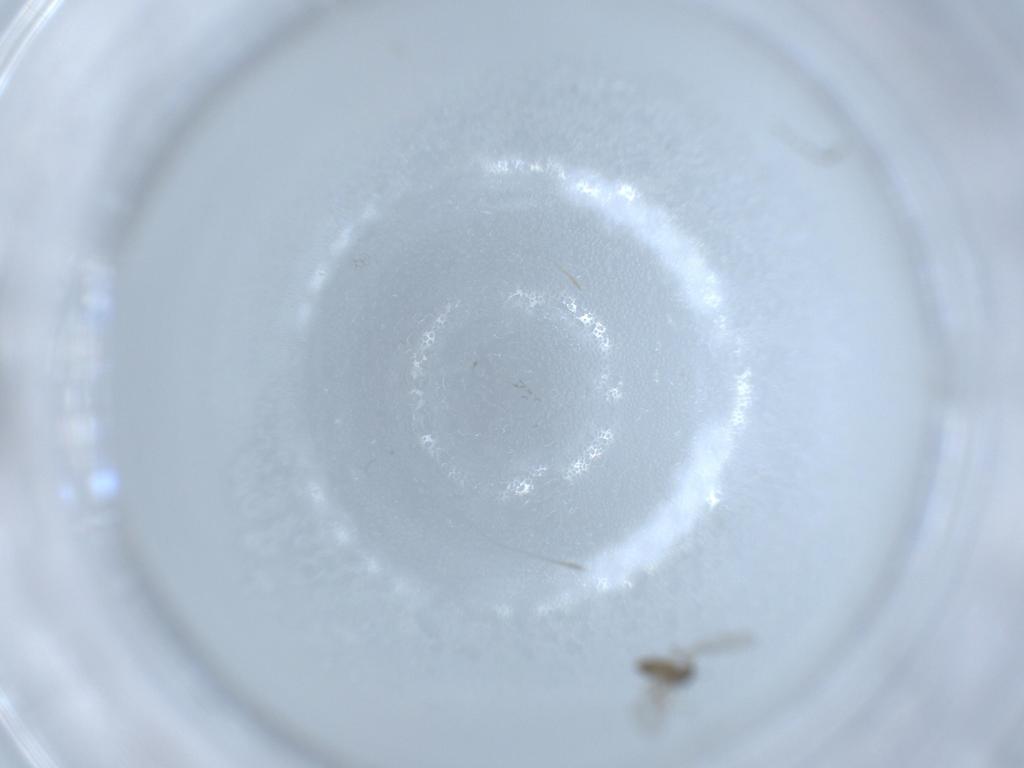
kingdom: Animalia
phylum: Arthropoda
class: Insecta
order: Diptera
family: Cecidomyiidae
